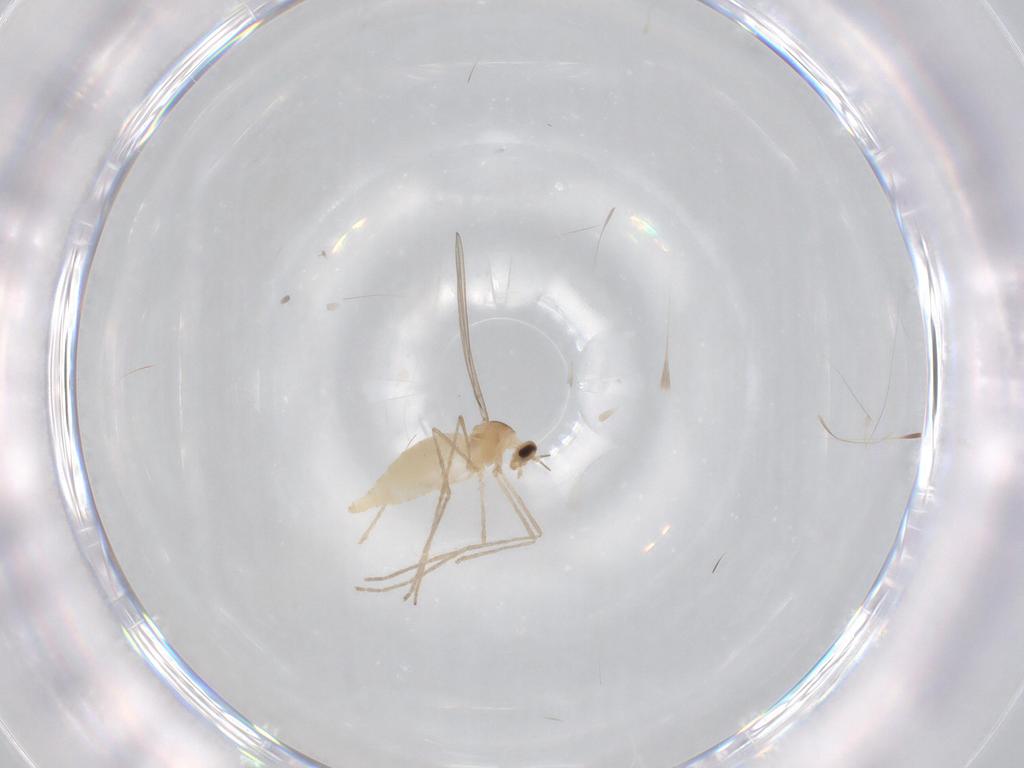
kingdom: Animalia
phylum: Arthropoda
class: Insecta
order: Diptera
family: Cecidomyiidae
